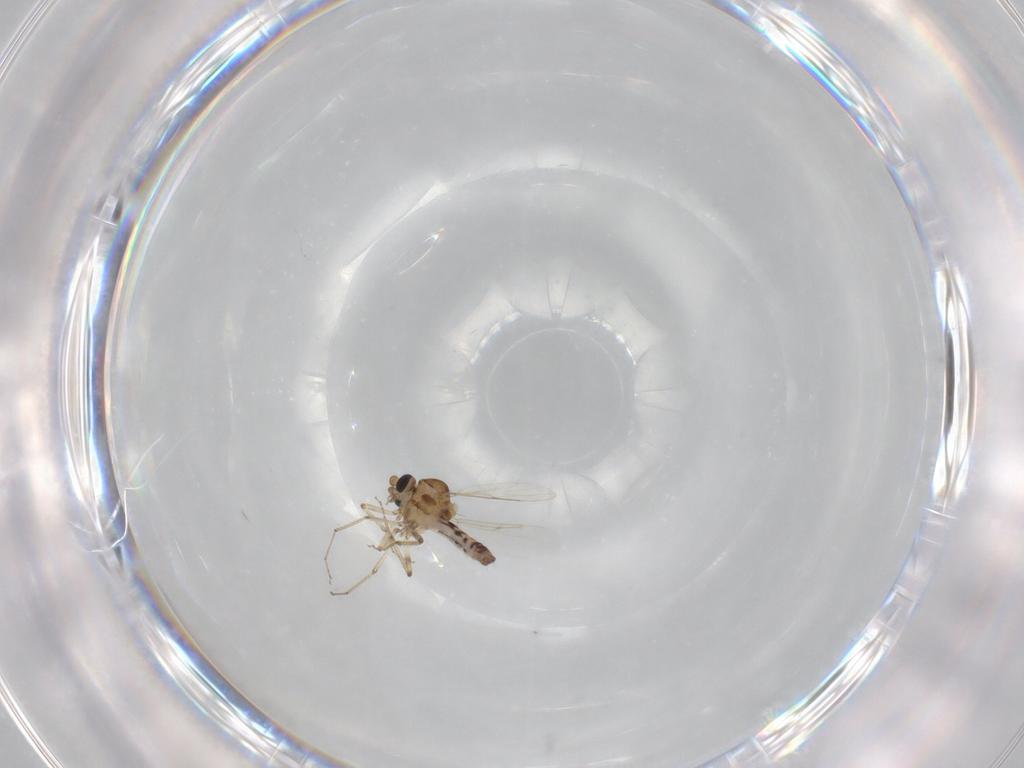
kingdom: Animalia
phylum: Arthropoda
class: Insecta
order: Diptera
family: Ceratopogonidae
